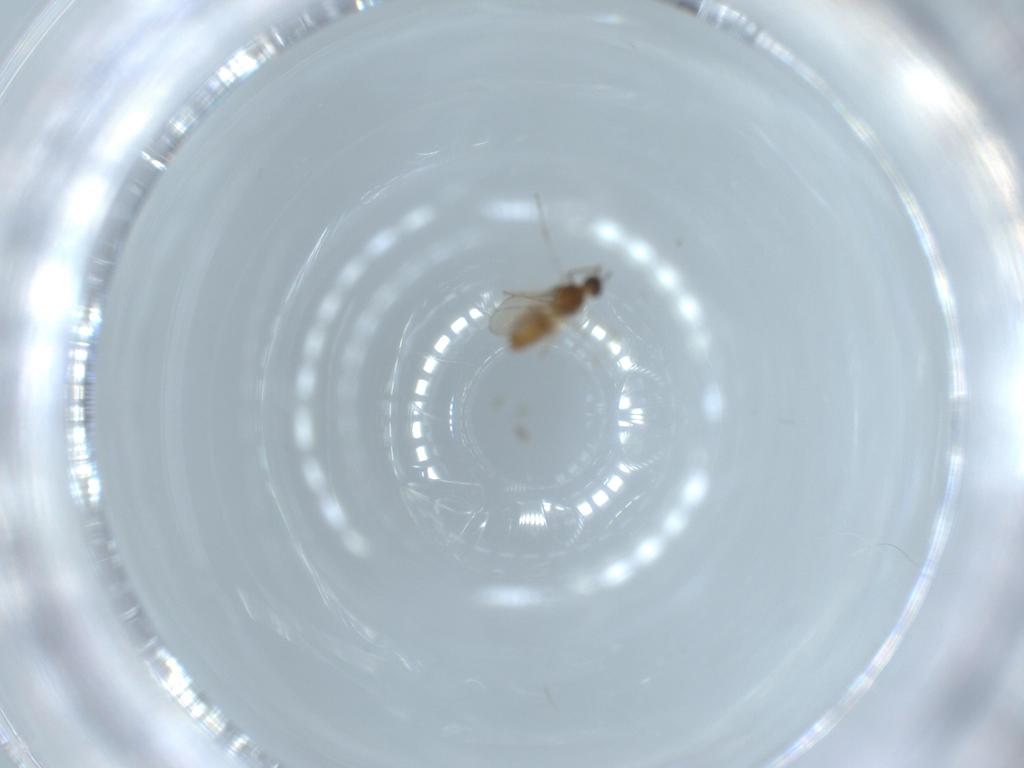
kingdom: Animalia
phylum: Arthropoda
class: Insecta
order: Diptera
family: Cecidomyiidae
